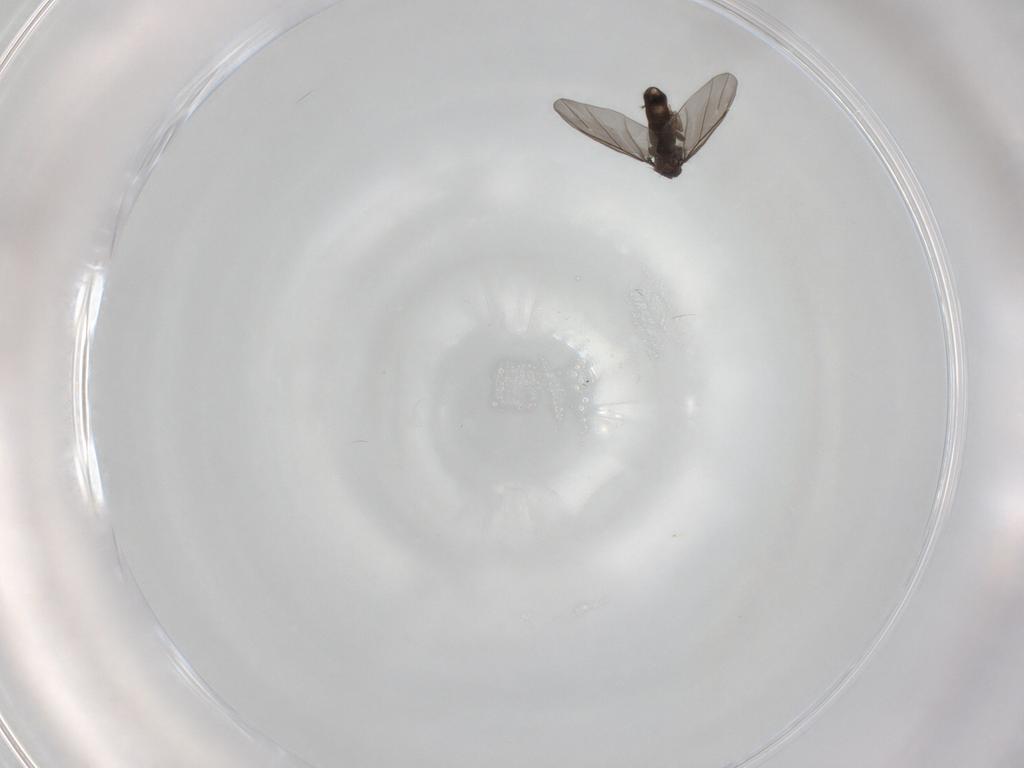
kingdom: Animalia
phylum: Arthropoda
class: Insecta
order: Diptera
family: Phoridae
